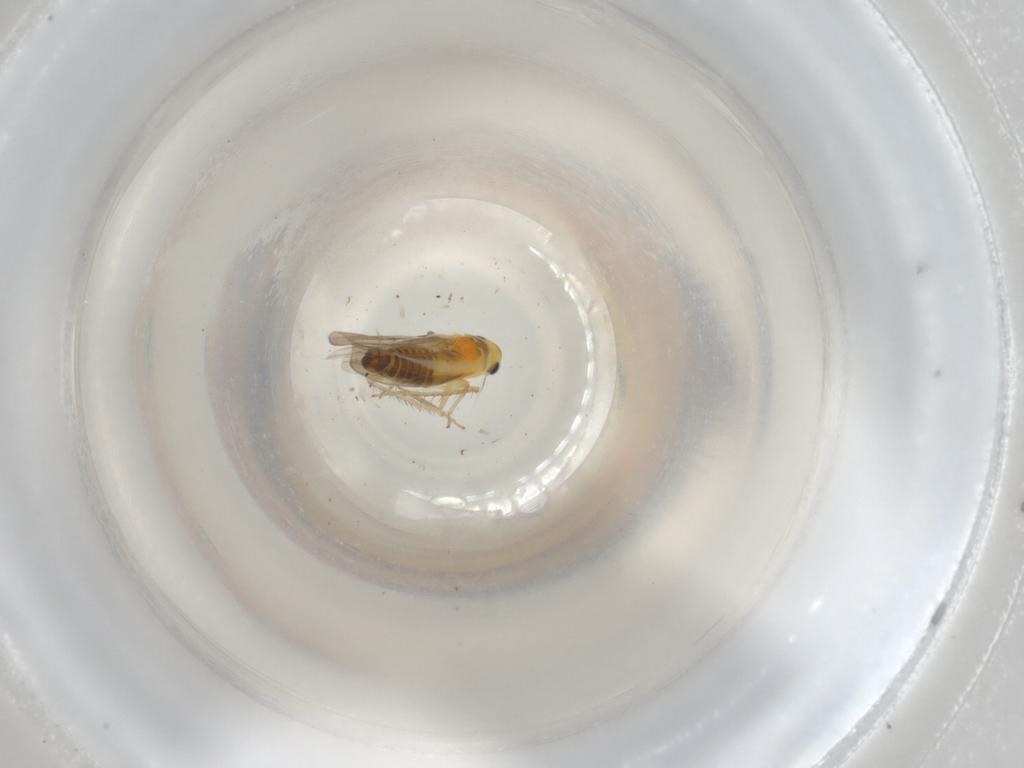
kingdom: Animalia
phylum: Arthropoda
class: Insecta
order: Hemiptera
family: Cicadellidae
